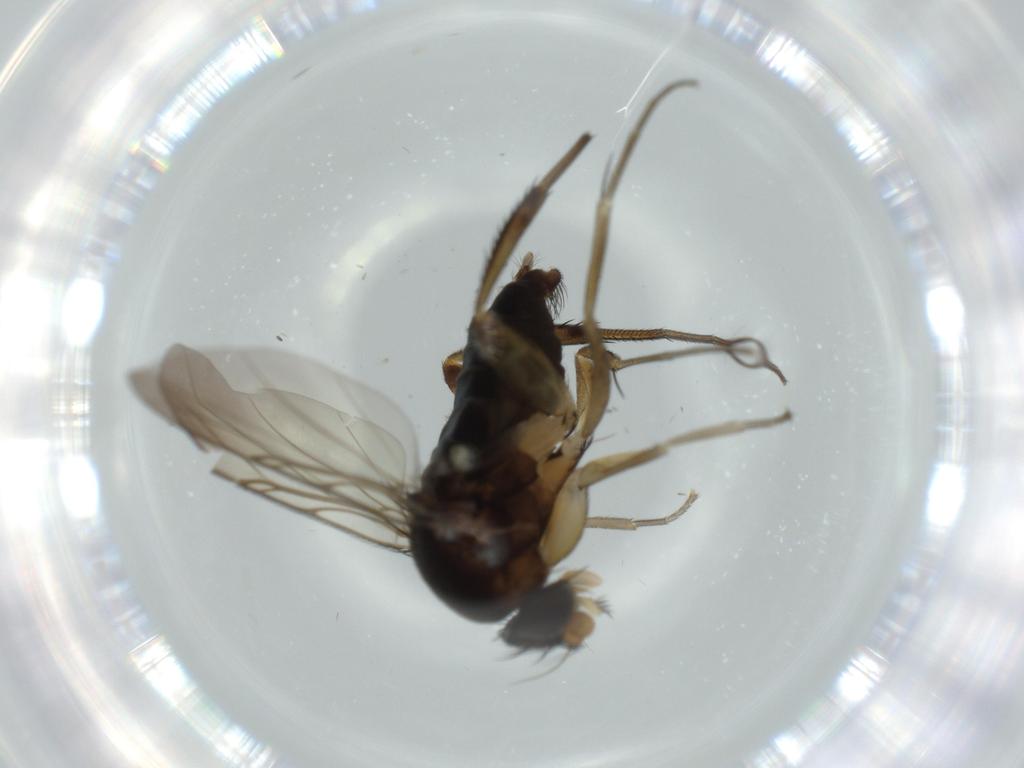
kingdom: Animalia
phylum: Arthropoda
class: Insecta
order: Diptera
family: Phoridae
